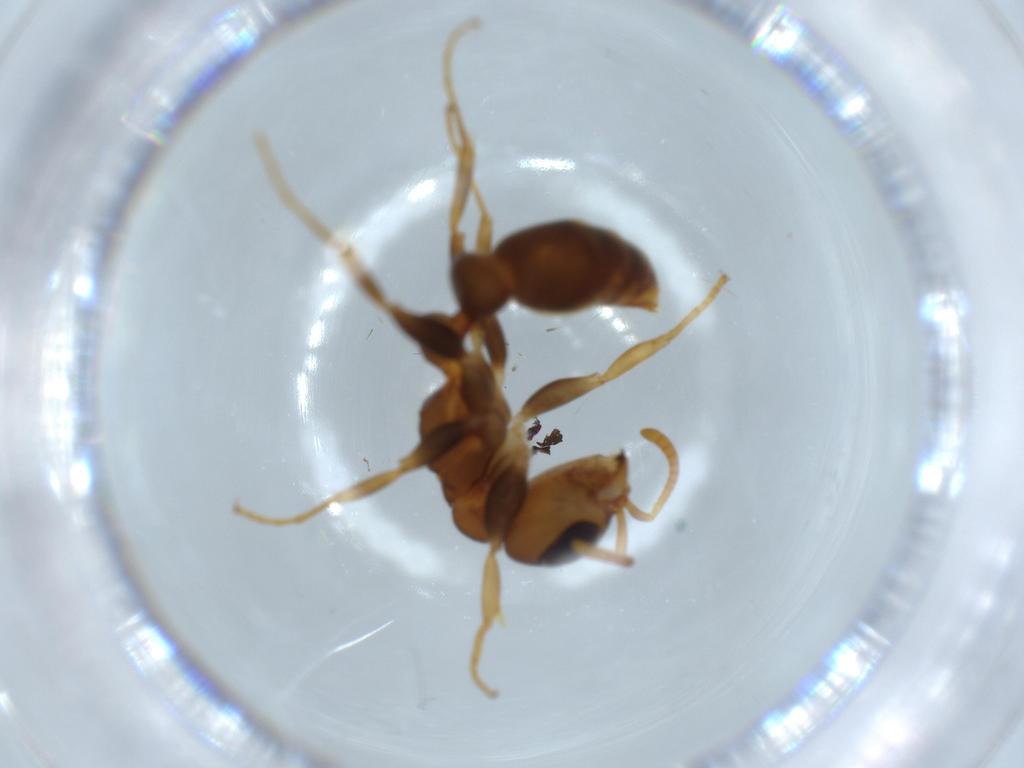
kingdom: Animalia
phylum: Arthropoda
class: Insecta
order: Hymenoptera
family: Formicidae
